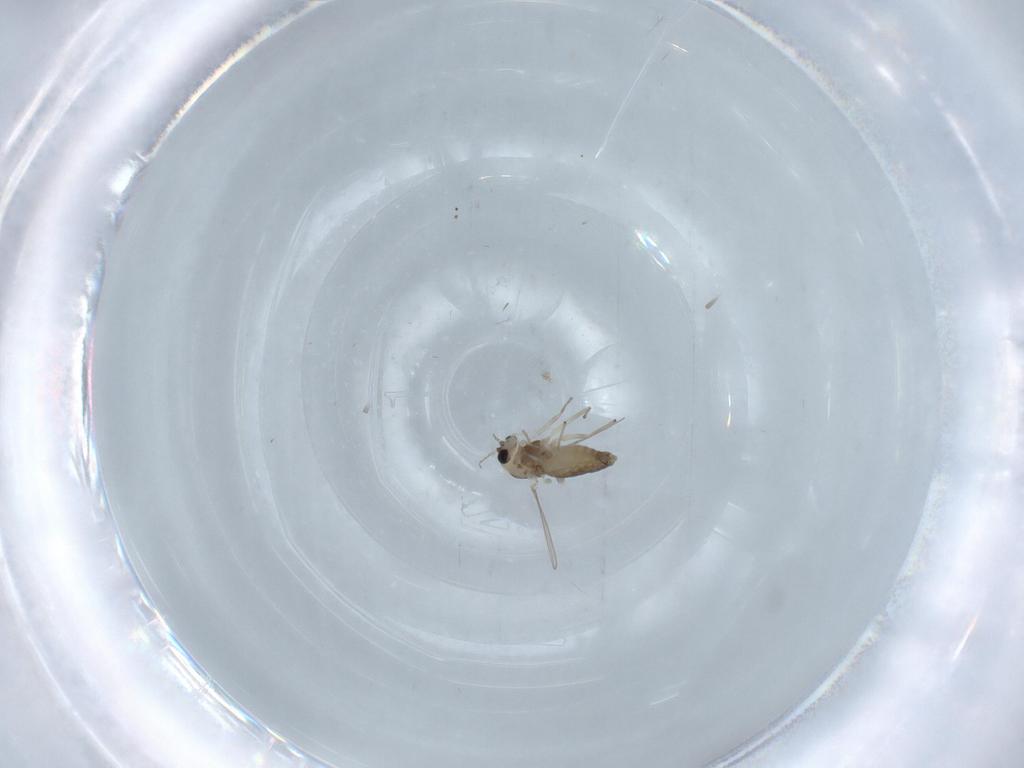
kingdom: Animalia
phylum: Arthropoda
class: Insecta
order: Diptera
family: Chironomidae
